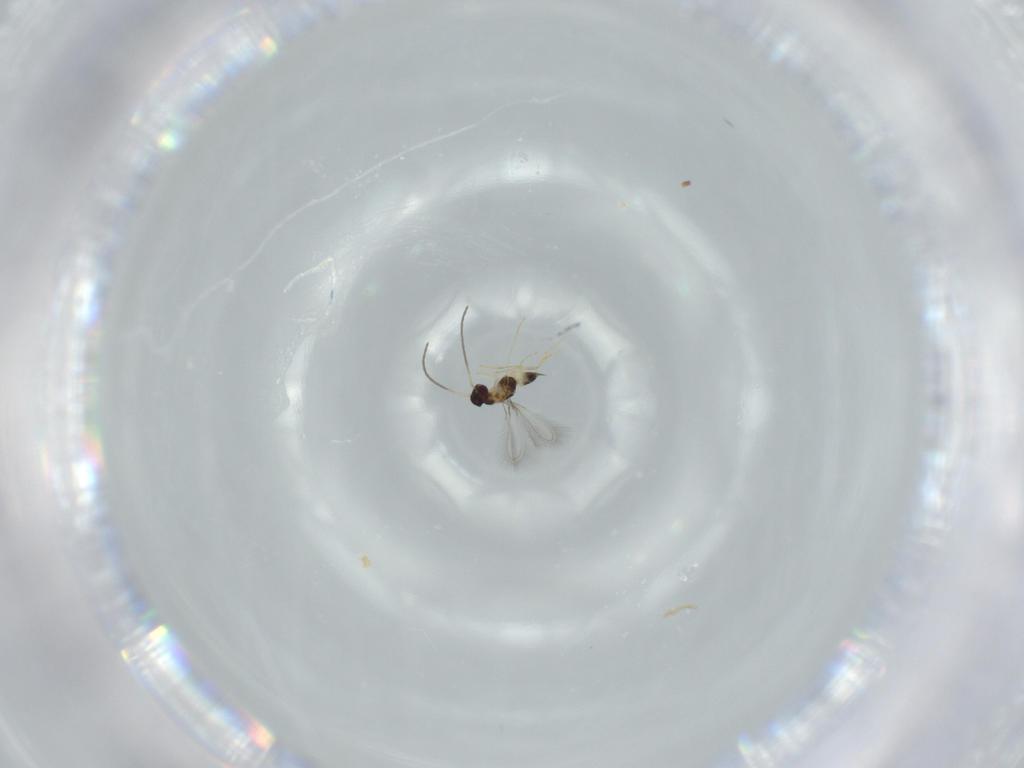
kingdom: Animalia
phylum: Arthropoda
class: Insecta
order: Hymenoptera
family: Mymaridae
